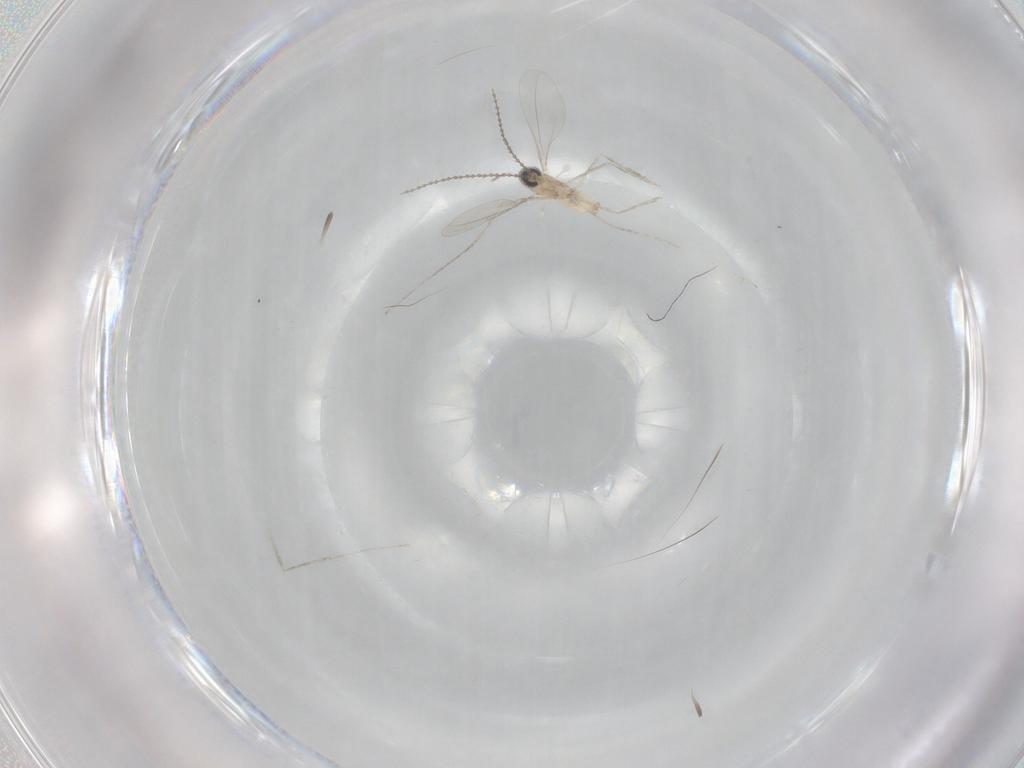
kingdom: Animalia
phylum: Arthropoda
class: Insecta
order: Diptera
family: Cecidomyiidae
